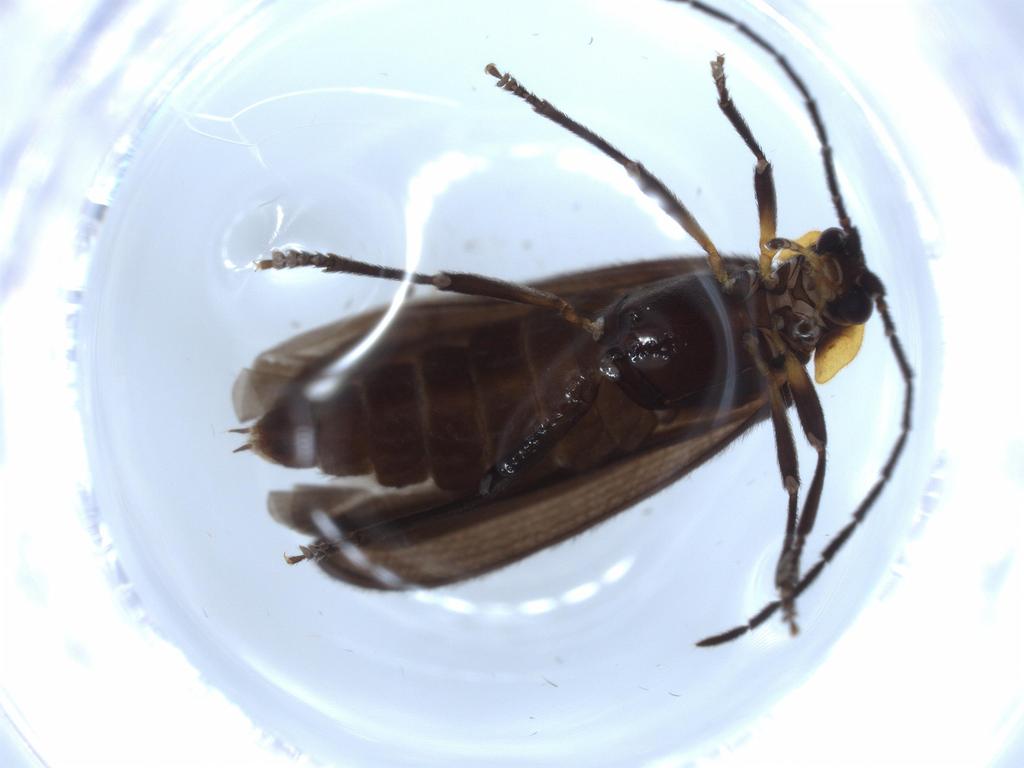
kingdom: Animalia
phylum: Arthropoda
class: Insecta
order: Coleoptera
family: Lycidae
